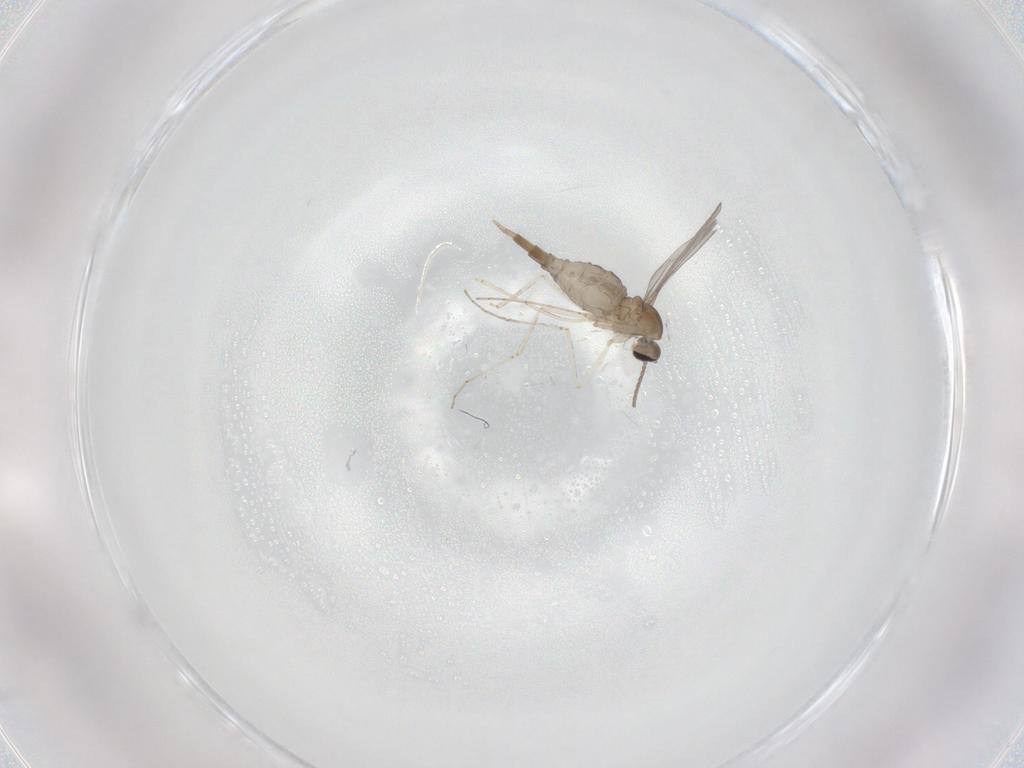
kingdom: Animalia
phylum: Arthropoda
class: Insecta
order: Diptera
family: Cecidomyiidae
